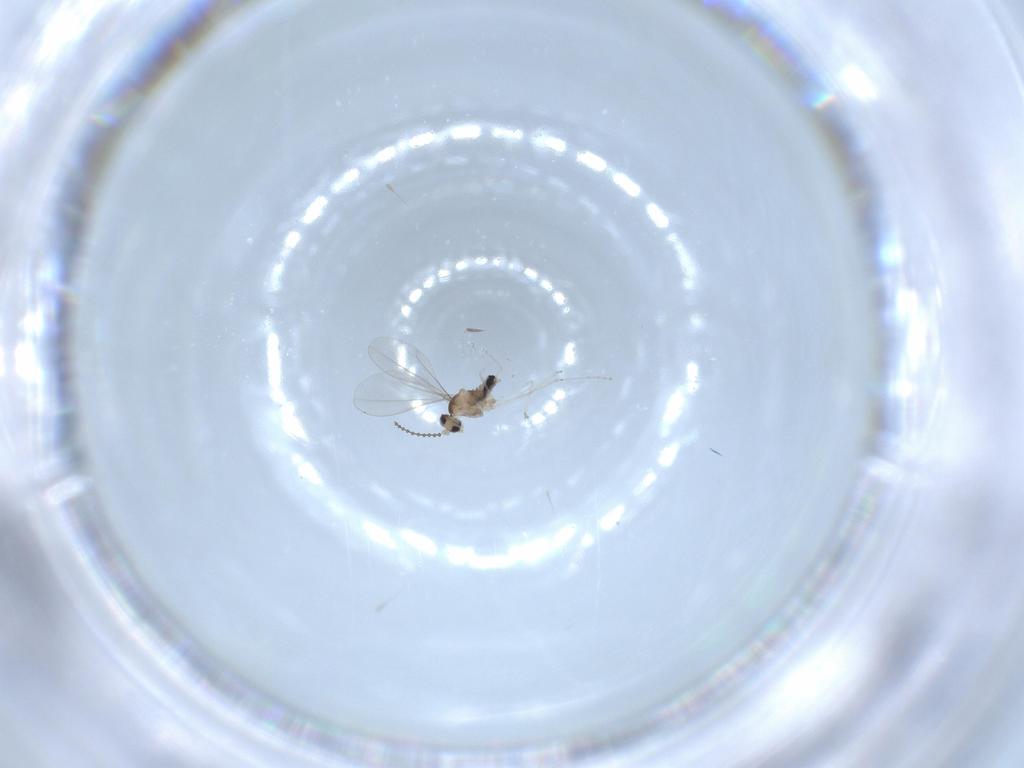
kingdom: Animalia
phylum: Arthropoda
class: Insecta
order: Diptera
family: Cecidomyiidae
